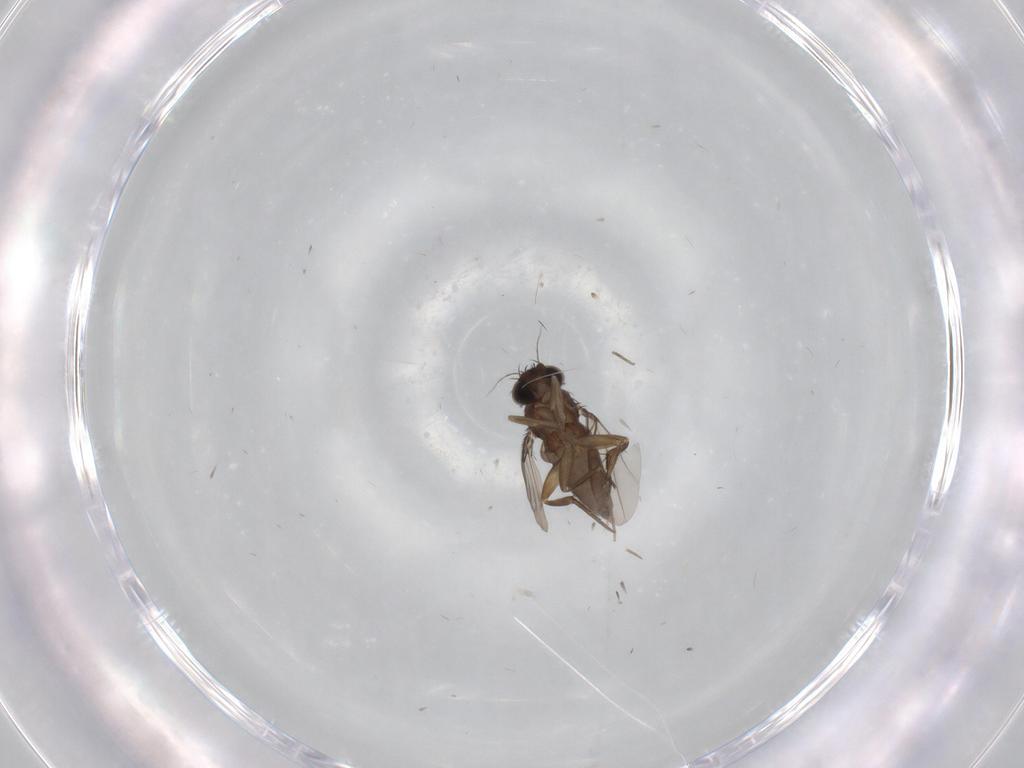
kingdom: Animalia
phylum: Arthropoda
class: Insecta
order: Diptera
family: Phoridae
